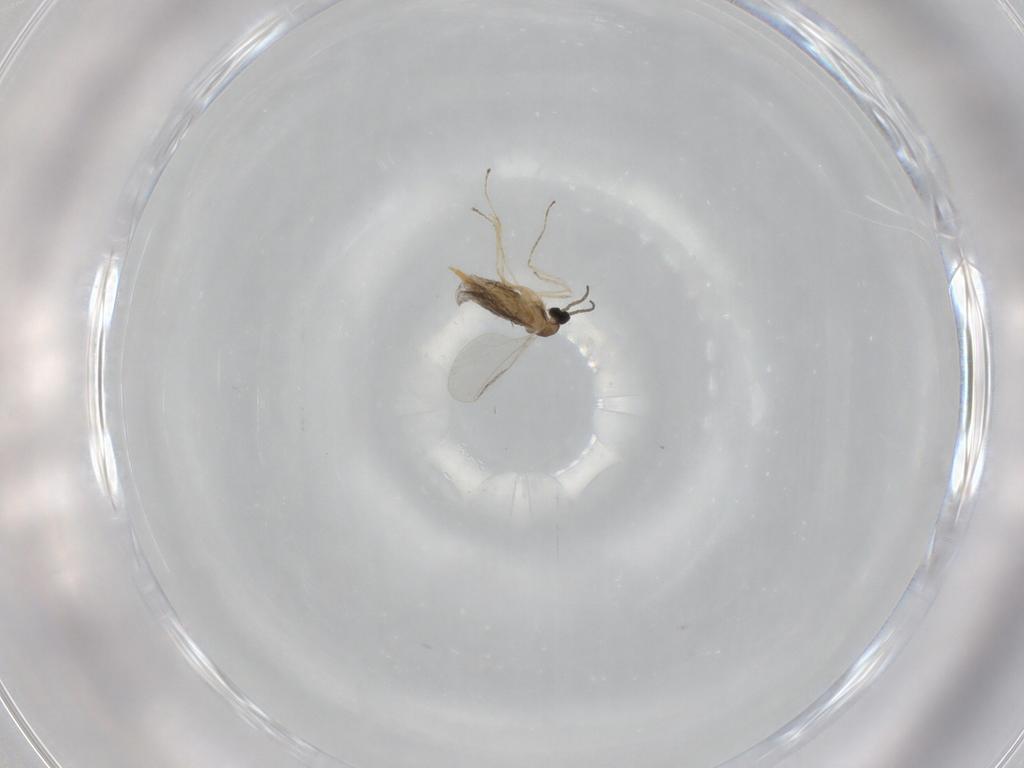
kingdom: Animalia
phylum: Arthropoda
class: Insecta
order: Diptera
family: Cecidomyiidae
